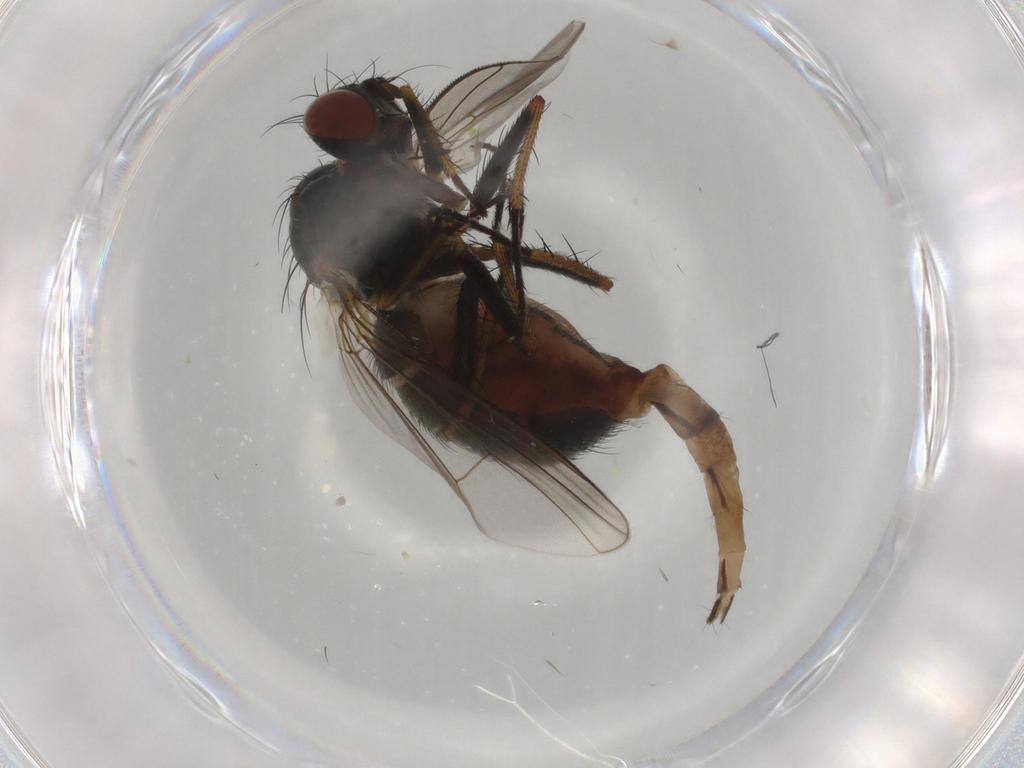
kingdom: Animalia
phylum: Arthropoda
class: Insecta
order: Diptera
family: Muscidae
